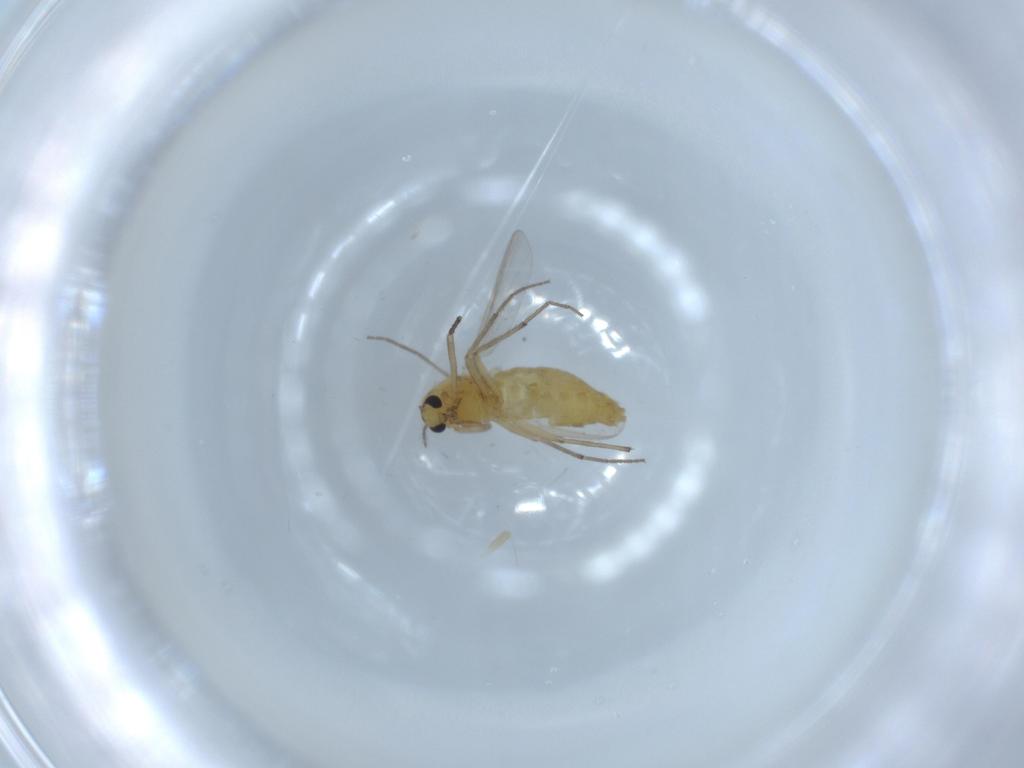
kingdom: Animalia
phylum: Arthropoda
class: Insecta
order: Diptera
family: Chironomidae
